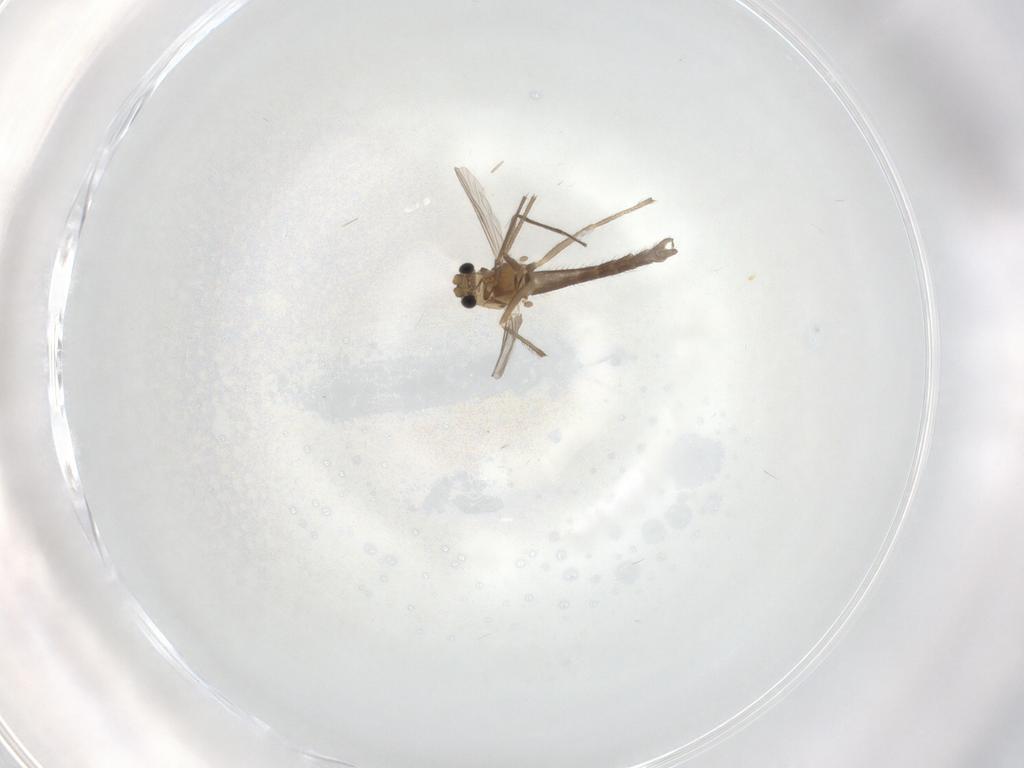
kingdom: Animalia
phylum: Arthropoda
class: Insecta
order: Diptera
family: Chironomidae
